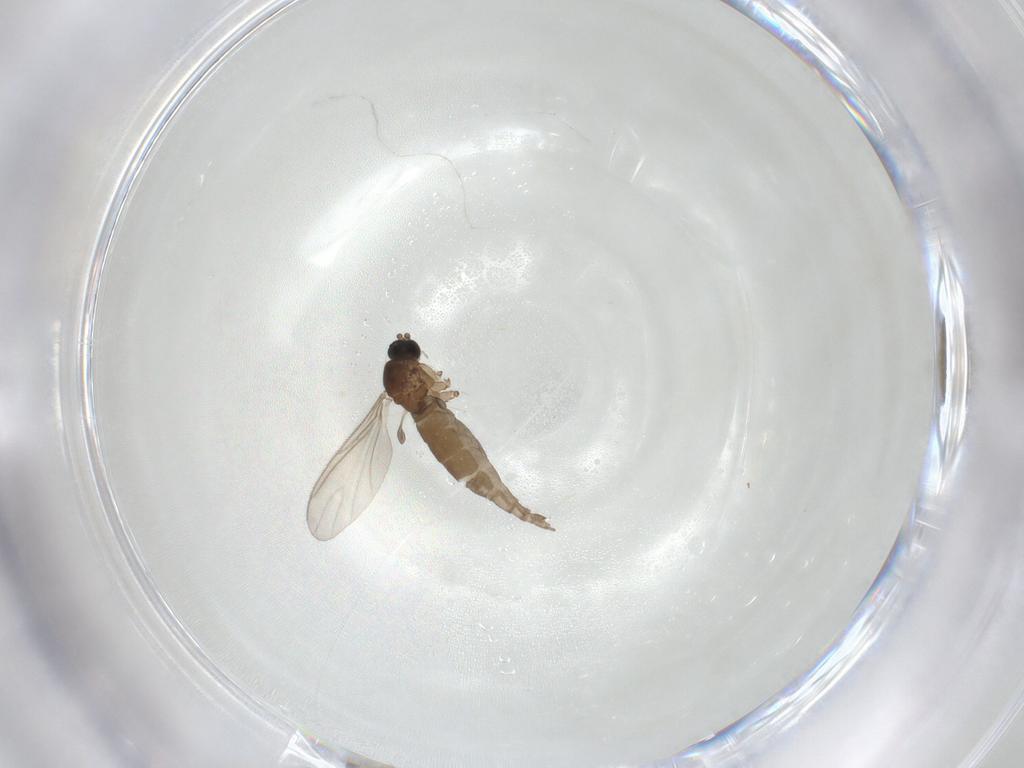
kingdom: Animalia
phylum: Arthropoda
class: Insecta
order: Diptera
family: Sciaridae
